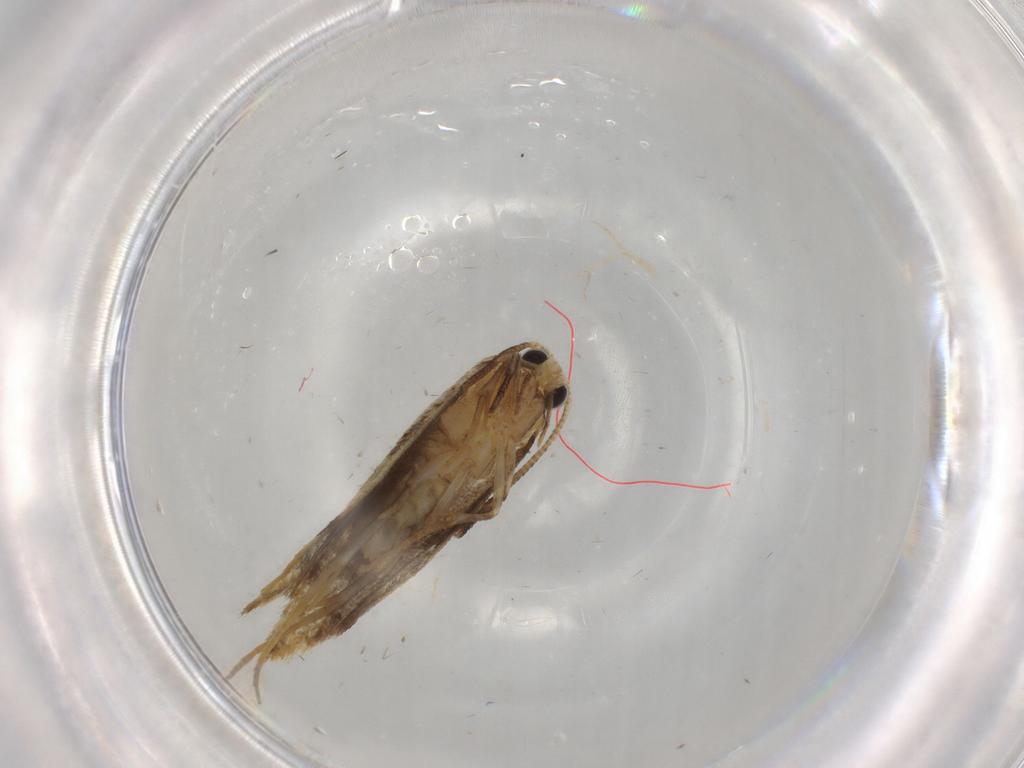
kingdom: Animalia
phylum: Arthropoda
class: Insecta
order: Lepidoptera
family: Tineidae
